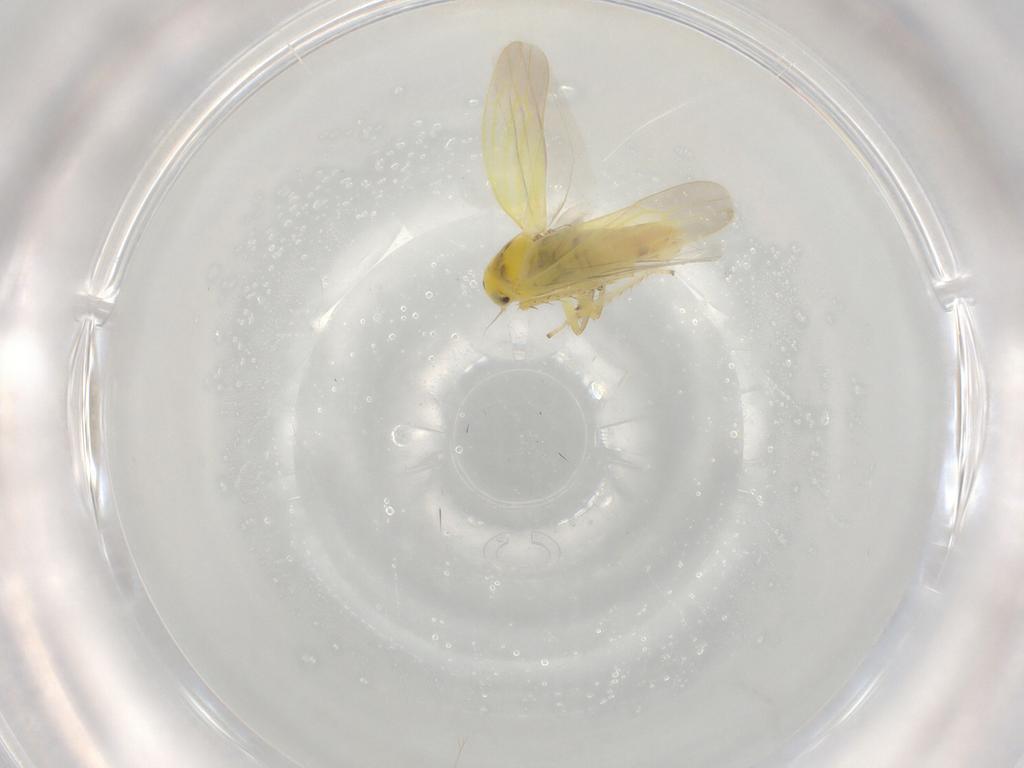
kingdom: Animalia
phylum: Arthropoda
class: Insecta
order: Hemiptera
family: Cicadellidae
